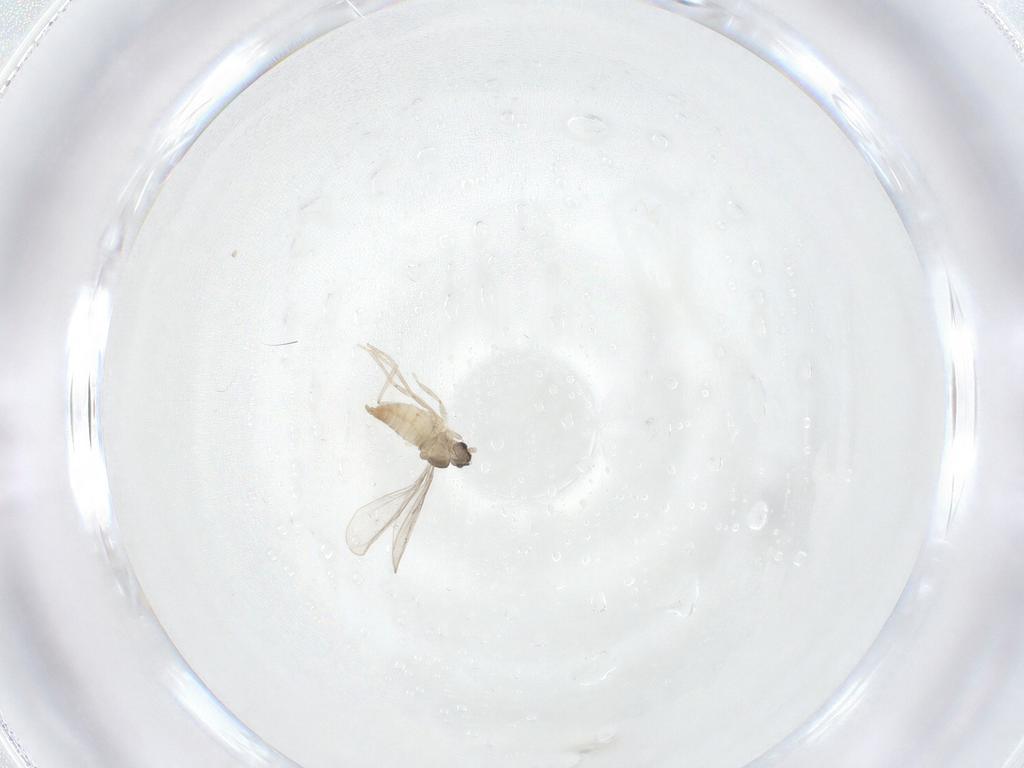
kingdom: Animalia
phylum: Arthropoda
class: Insecta
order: Diptera
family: Cecidomyiidae
